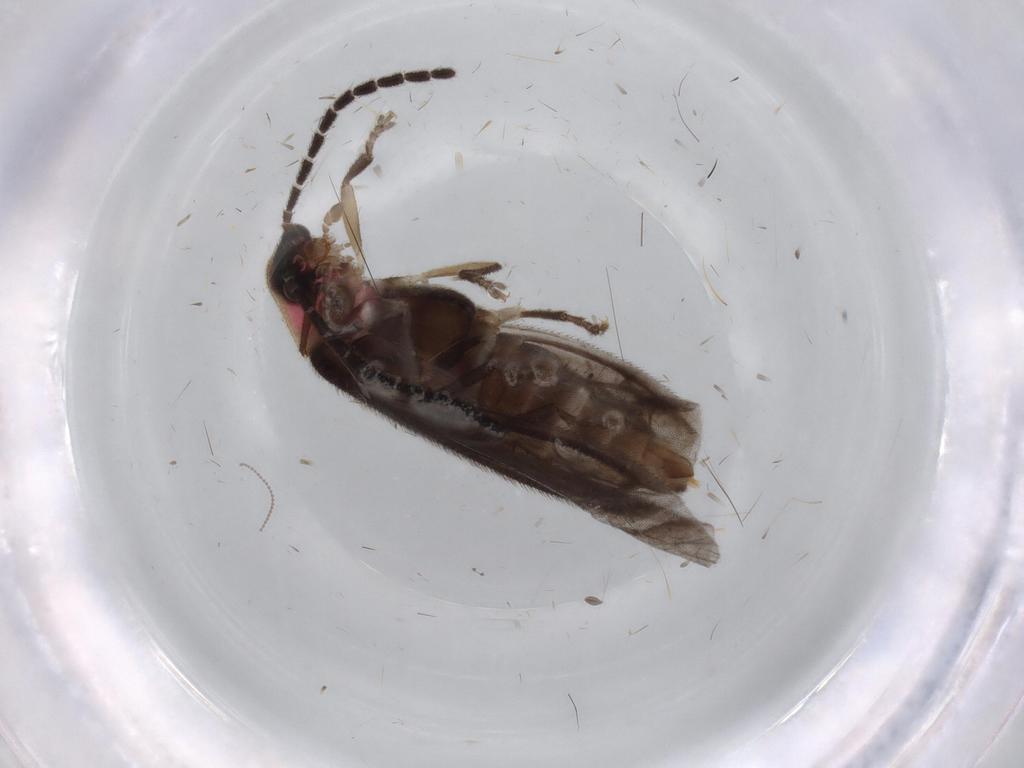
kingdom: Animalia
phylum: Arthropoda
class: Insecta
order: Coleoptera
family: Lampyridae
